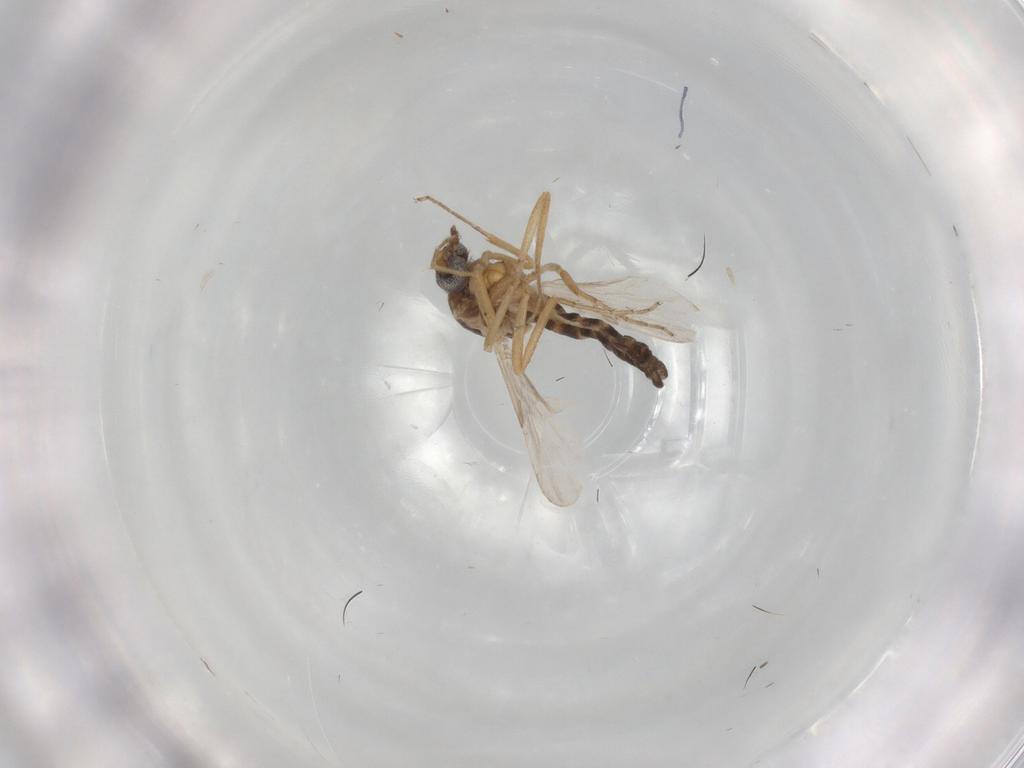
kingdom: Animalia
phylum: Arthropoda
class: Insecta
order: Diptera
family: Ceratopogonidae
